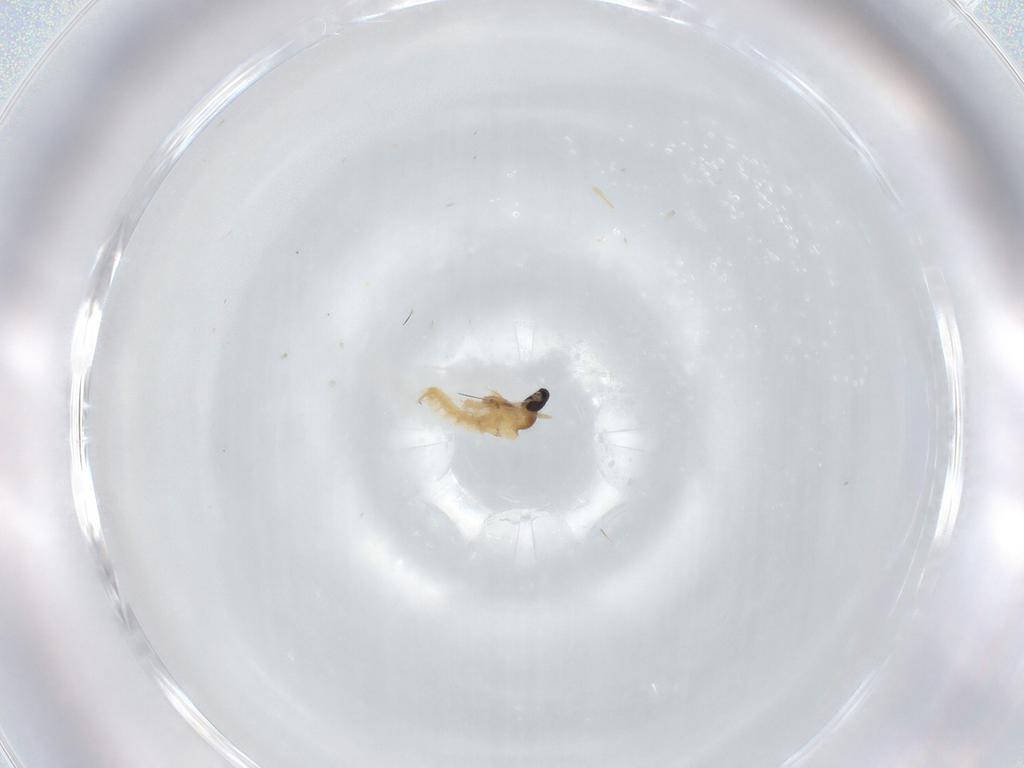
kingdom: Animalia
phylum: Arthropoda
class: Insecta
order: Diptera
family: Cecidomyiidae
